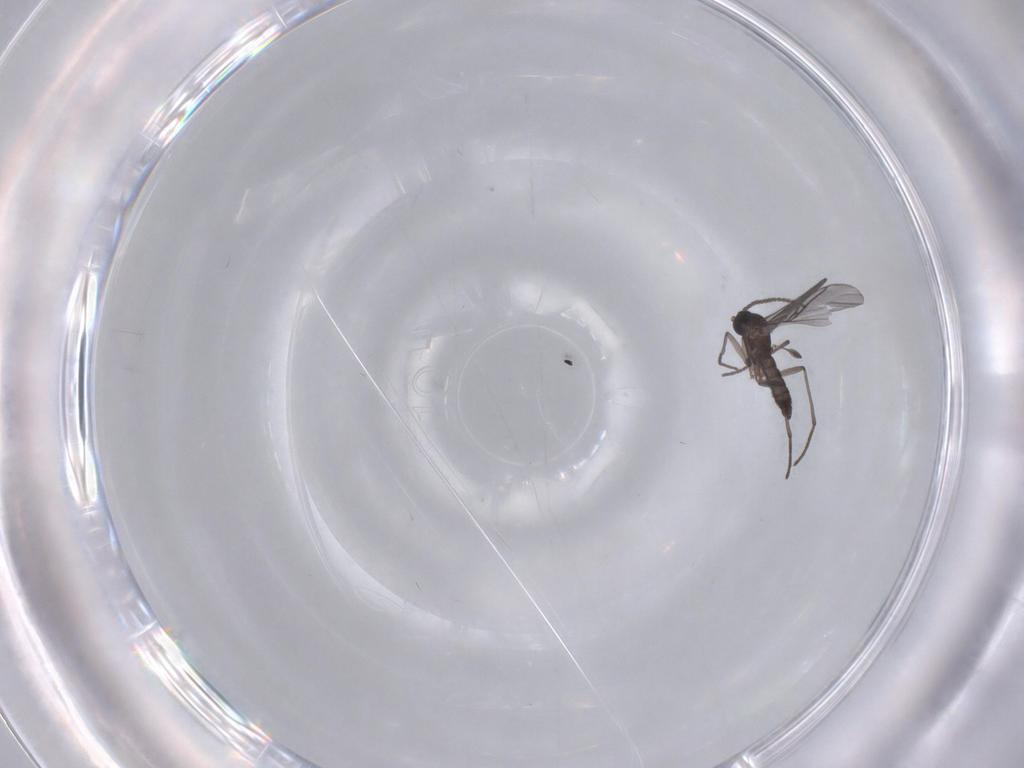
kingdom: Animalia
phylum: Arthropoda
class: Insecta
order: Diptera
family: Sciaridae
